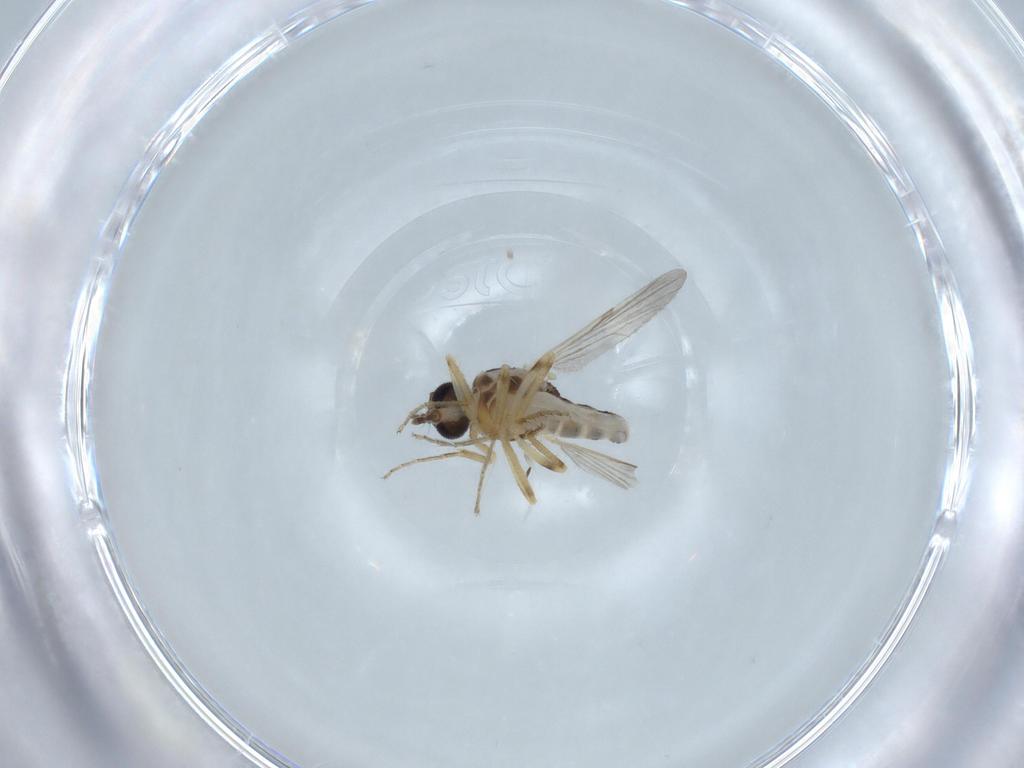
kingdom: Animalia
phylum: Arthropoda
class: Insecta
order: Diptera
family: Ceratopogonidae
